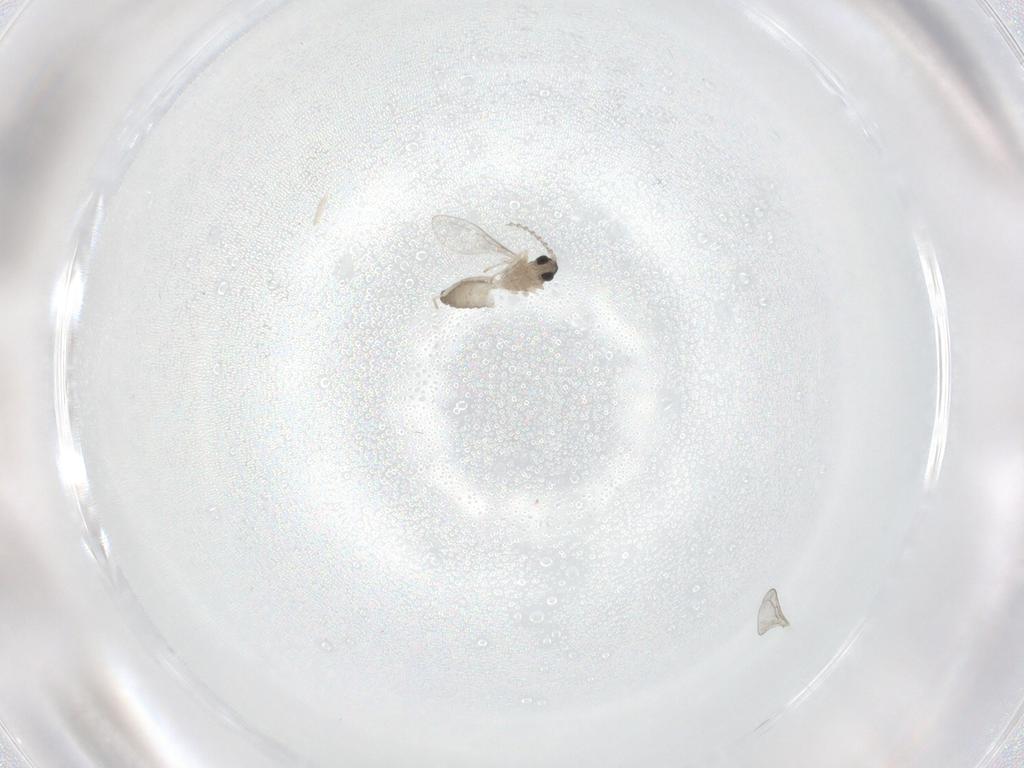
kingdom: Animalia
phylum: Arthropoda
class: Insecta
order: Diptera
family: Cecidomyiidae
